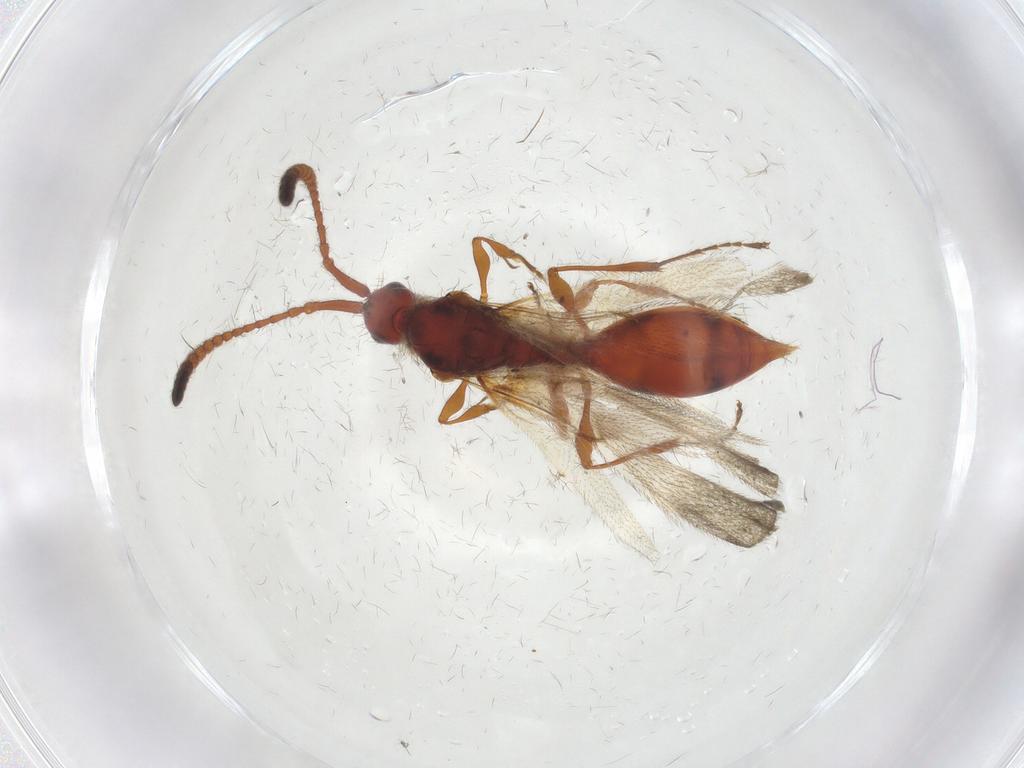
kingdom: Animalia
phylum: Arthropoda
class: Insecta
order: Hymenoptera
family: Diapriidae
